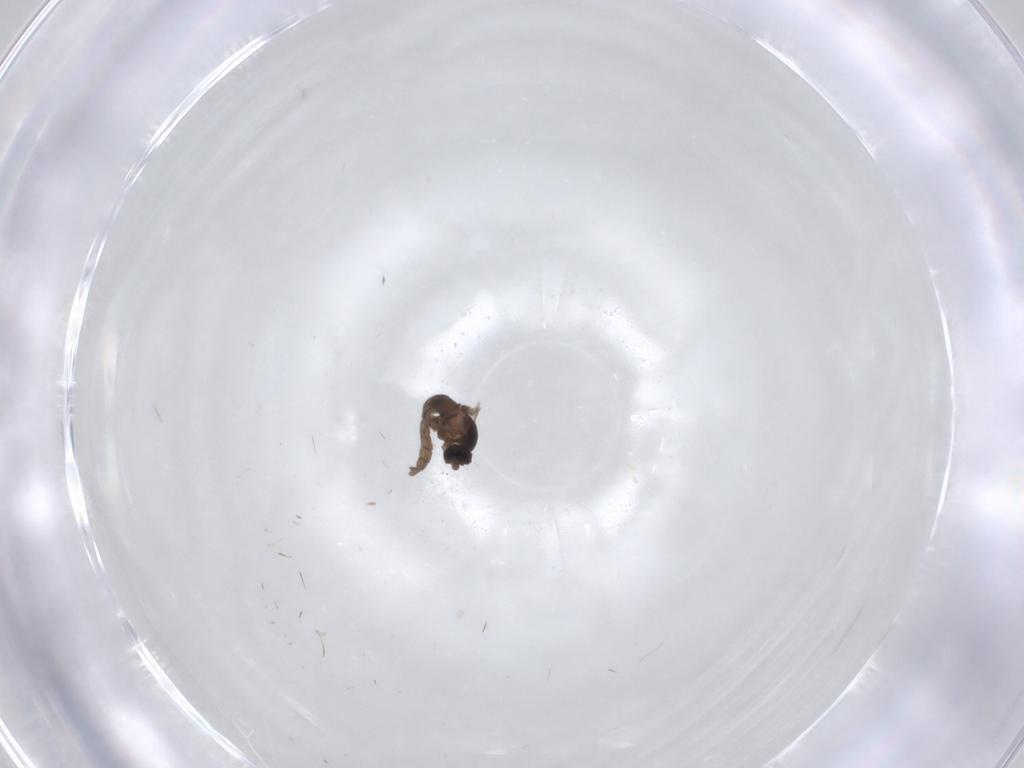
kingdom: Animalia
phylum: Arthropoda
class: Insecta
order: Diptera
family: Cecidomyiidae
